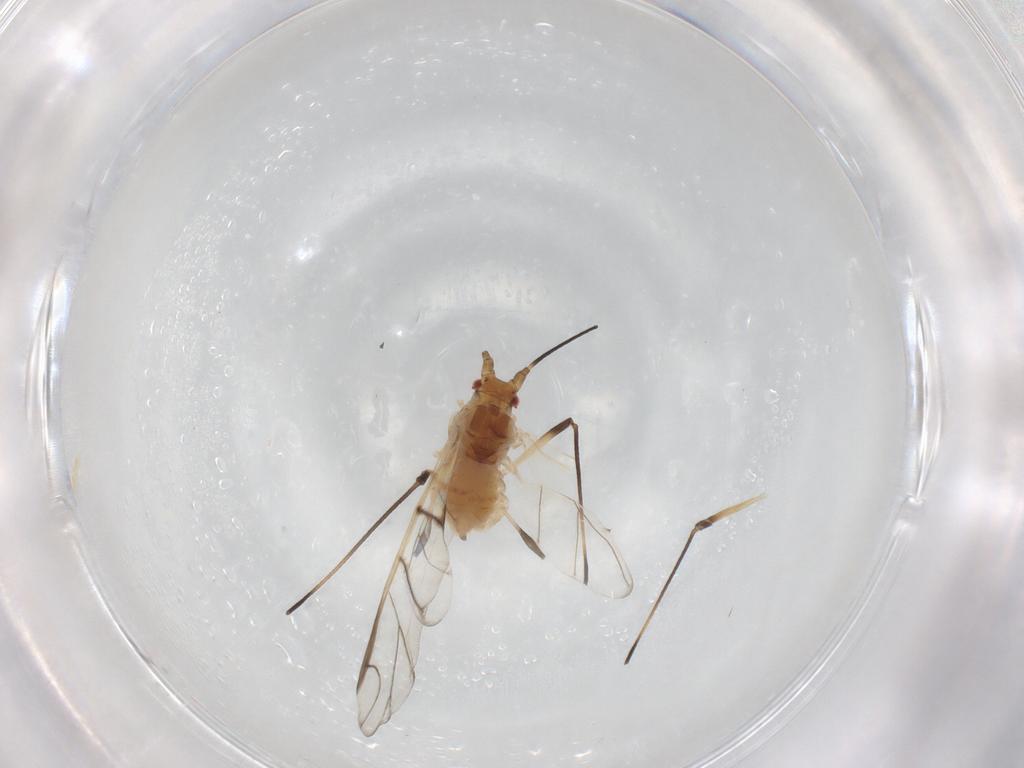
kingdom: Animalia
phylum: Arthropoda
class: Insecta
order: Hemiptera
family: Aphididae
